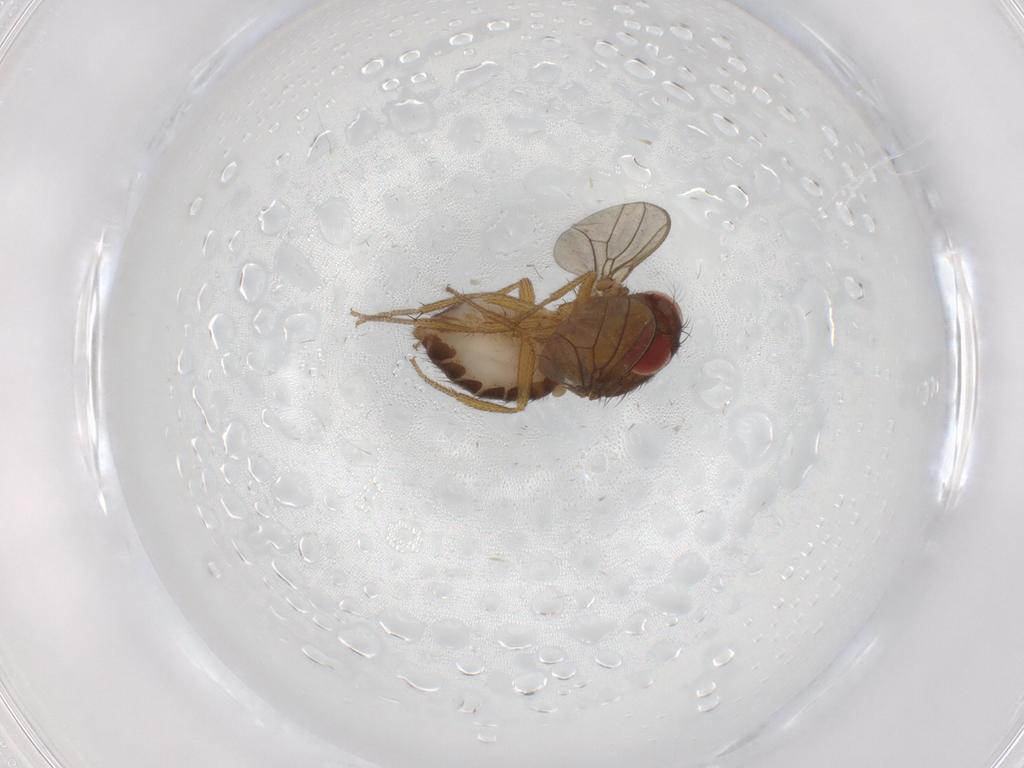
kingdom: Animalia
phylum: Arthropoda
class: Insecta
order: Diptera
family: Drosophilidae
